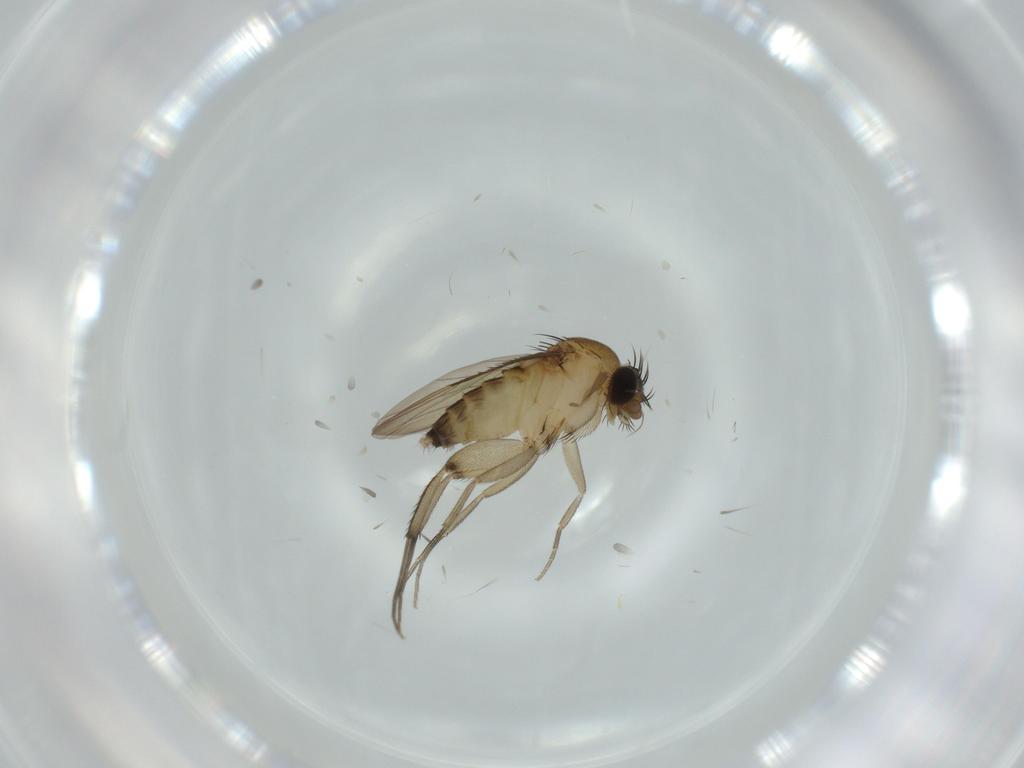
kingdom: Animalia
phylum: Arthropoda
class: Insecta
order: Diptera
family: Phoridae
